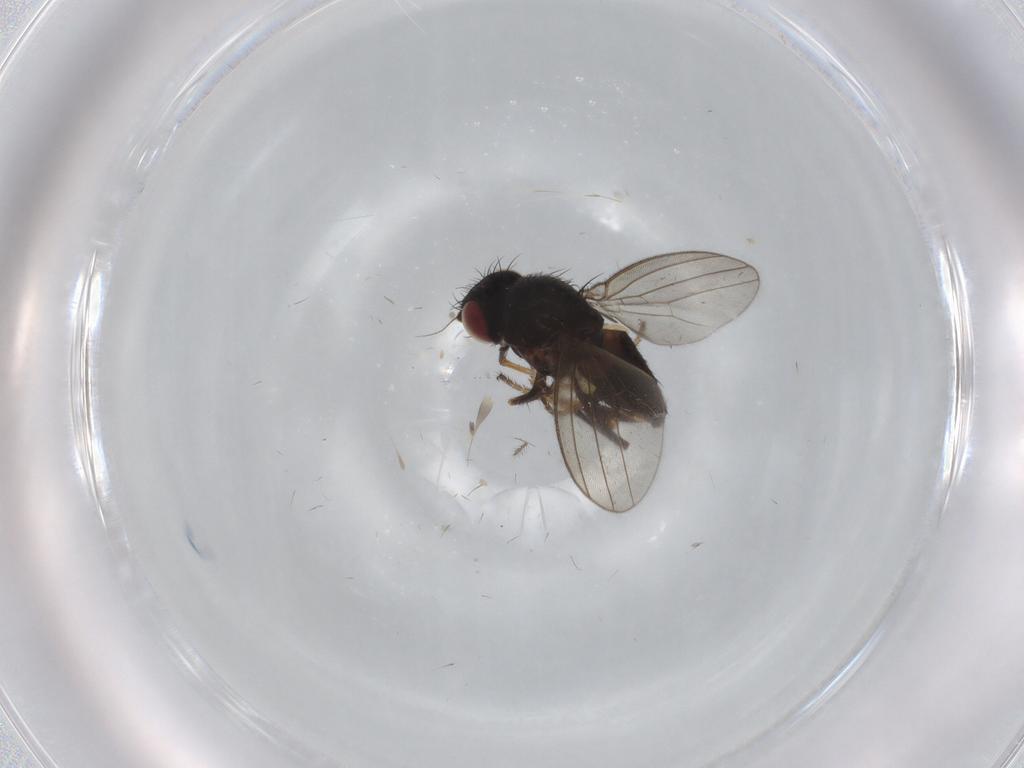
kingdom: Animalia
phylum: Arthropoda
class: Insecta
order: Diptera
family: Milichiidae
